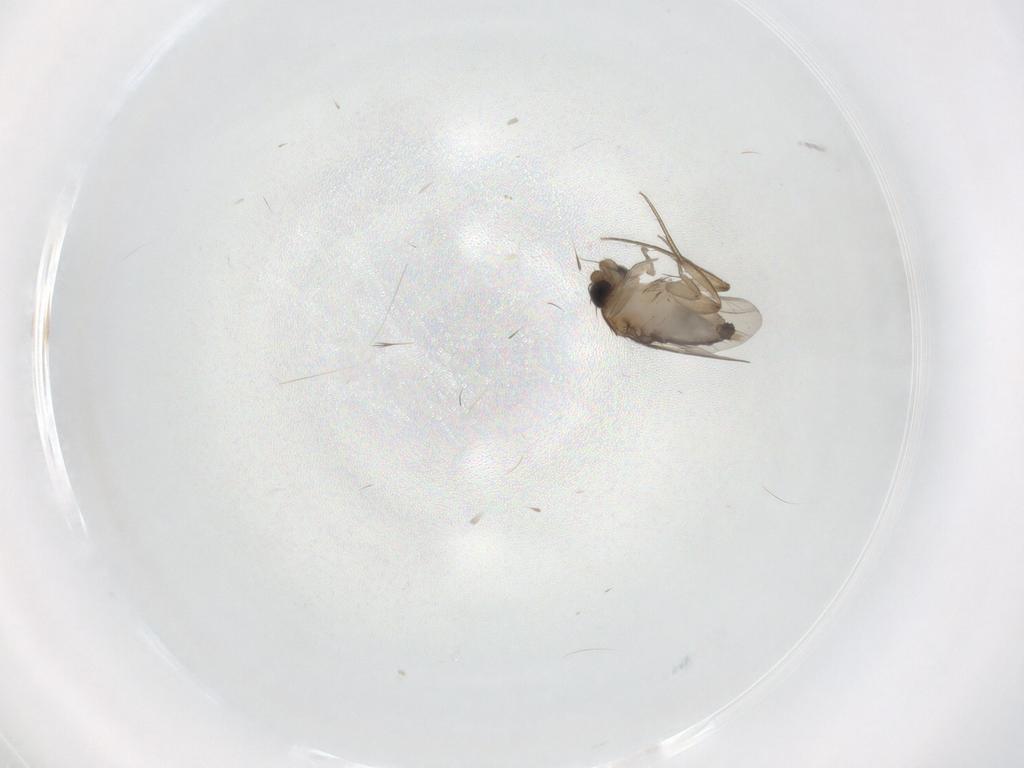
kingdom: Animalia
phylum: Arthropoda
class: Insecta
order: Diptera
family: Phoridae
